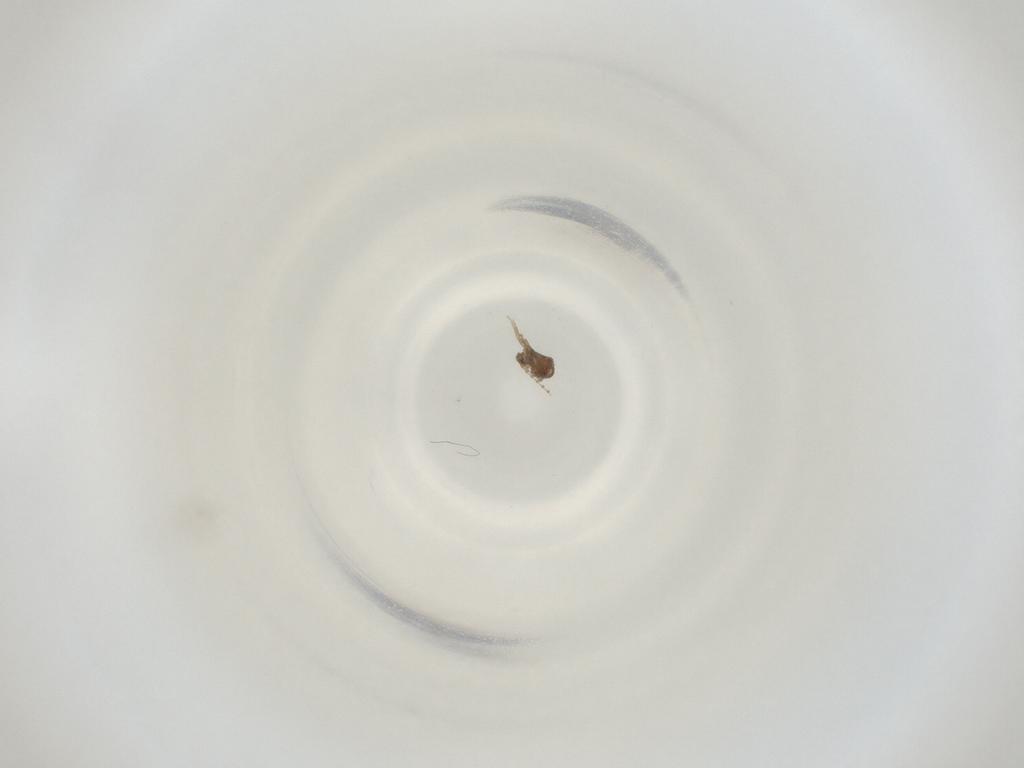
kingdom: Animalia
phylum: Arthropoda
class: Insecta
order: Diptera
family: Cecidomyiidae
